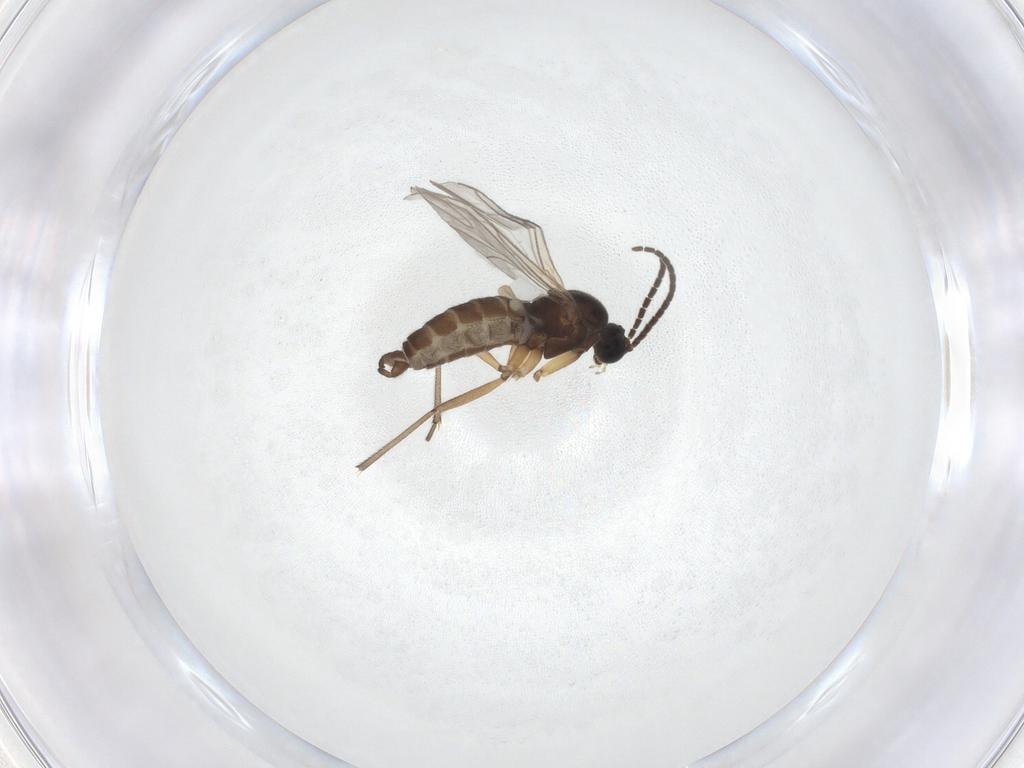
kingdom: Animalia
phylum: Arthropoda
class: Insecta
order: Diptera
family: Sciaridae
